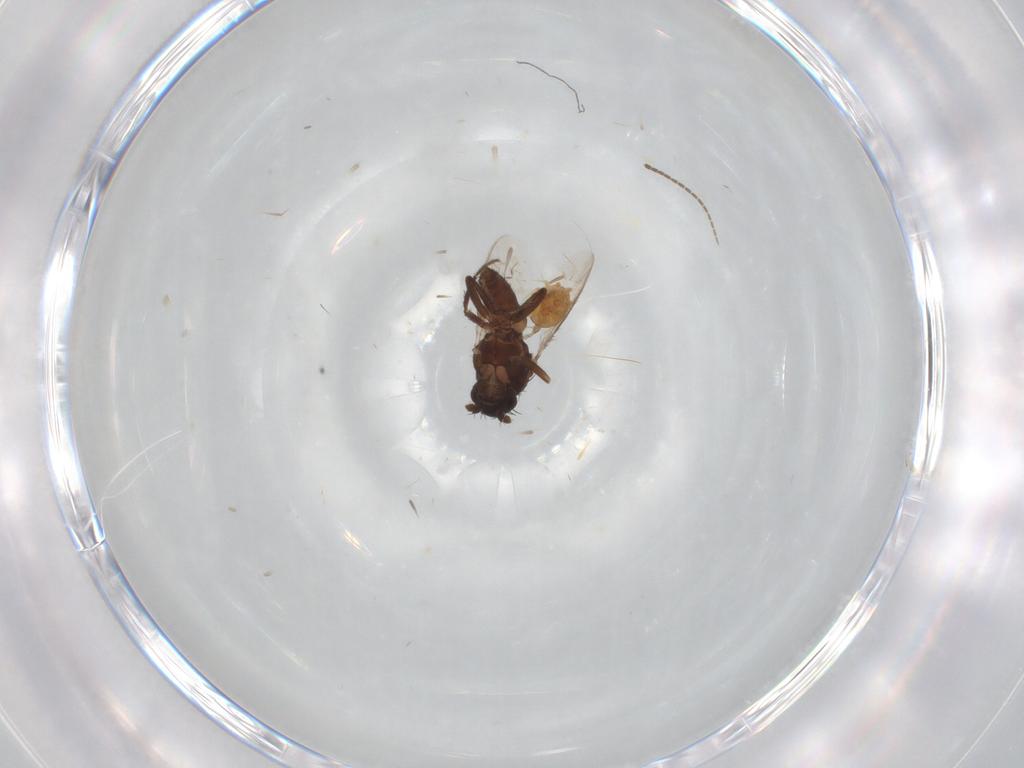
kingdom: Animalia
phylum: Arthropoda
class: Insecta
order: Diptera
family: Sphaeroceridae
